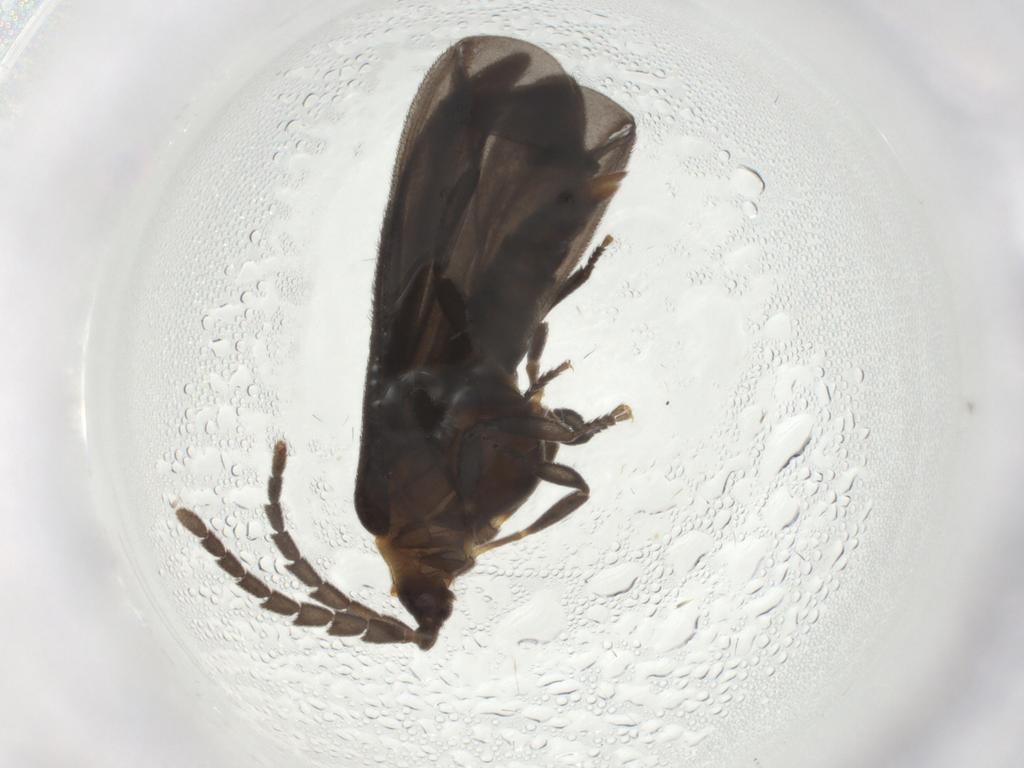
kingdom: Animalia
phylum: Arthropoda
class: Insecta
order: Coleoptera
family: Lycidae
